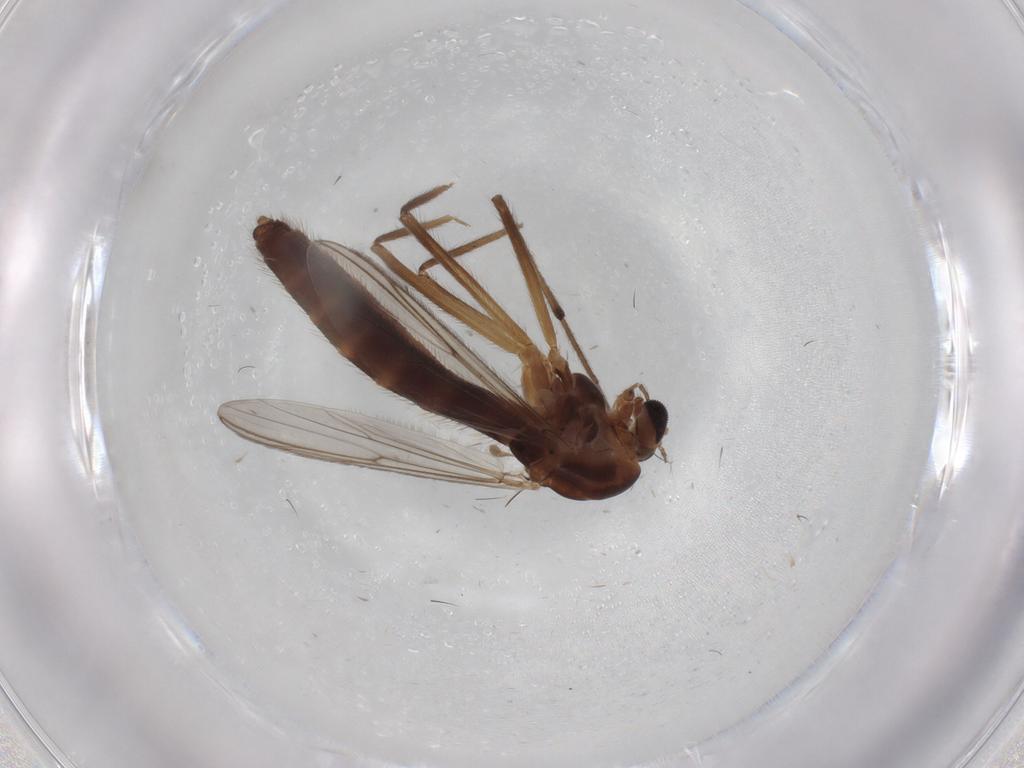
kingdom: Animalia
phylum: Arthropoda
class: Insecta
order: Diptera
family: Chironomidae
